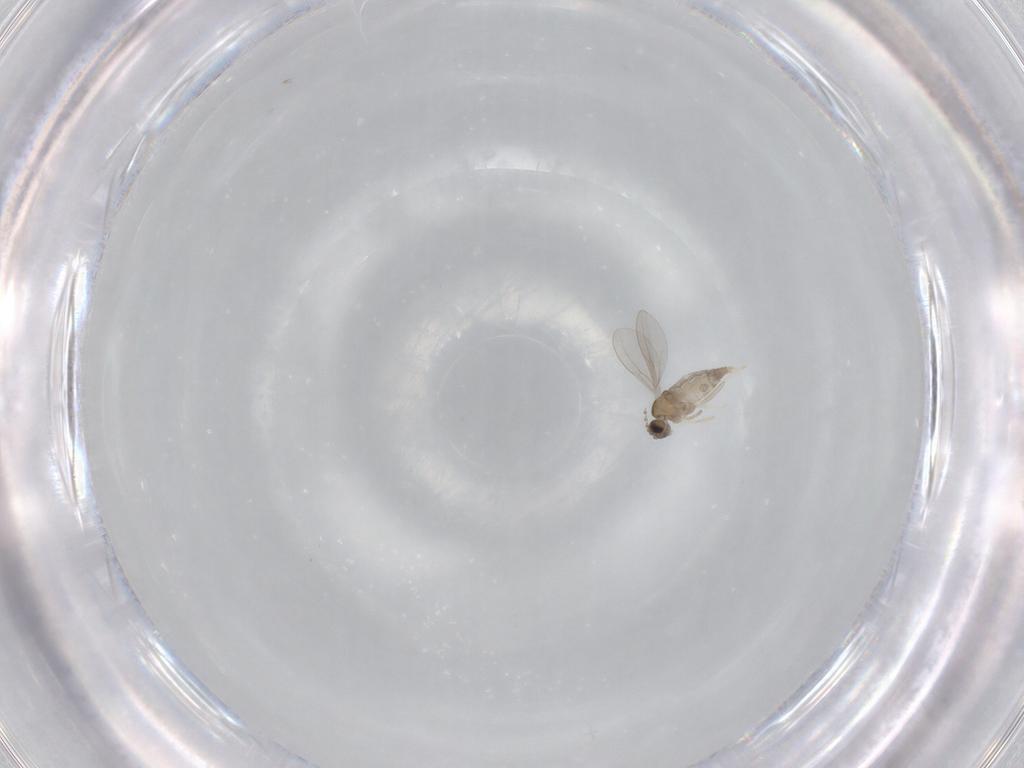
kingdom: Animalia
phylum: Arthropoda
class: Insecta
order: Diptera
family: Cecidomyiidae
